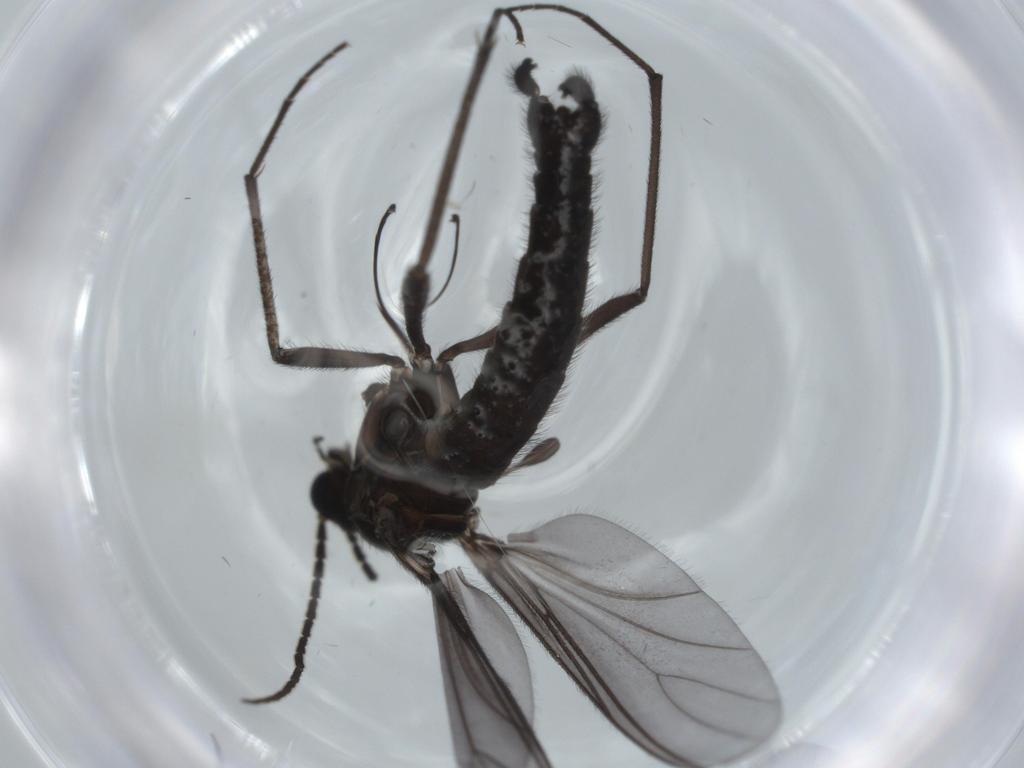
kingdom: Animalia
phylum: Arthropoda
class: Insecta
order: Diptera
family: Cecidomyiidae
